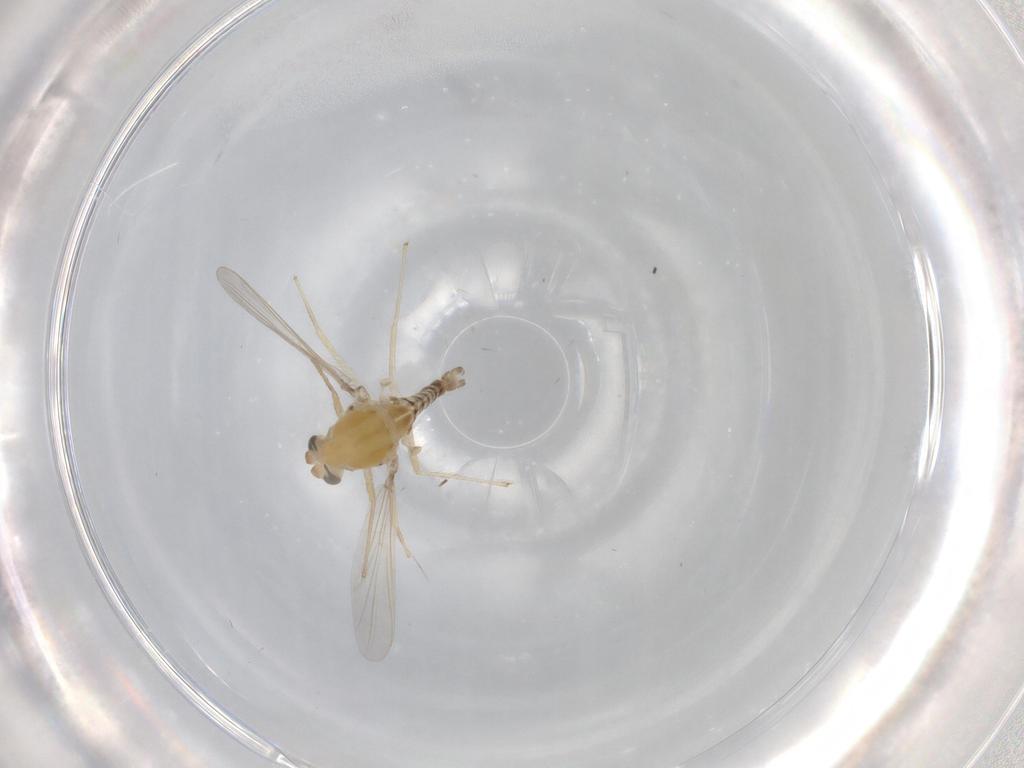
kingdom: Animalia
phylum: Arthropoda
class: Insecta
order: Diptera
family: Chironomidae
